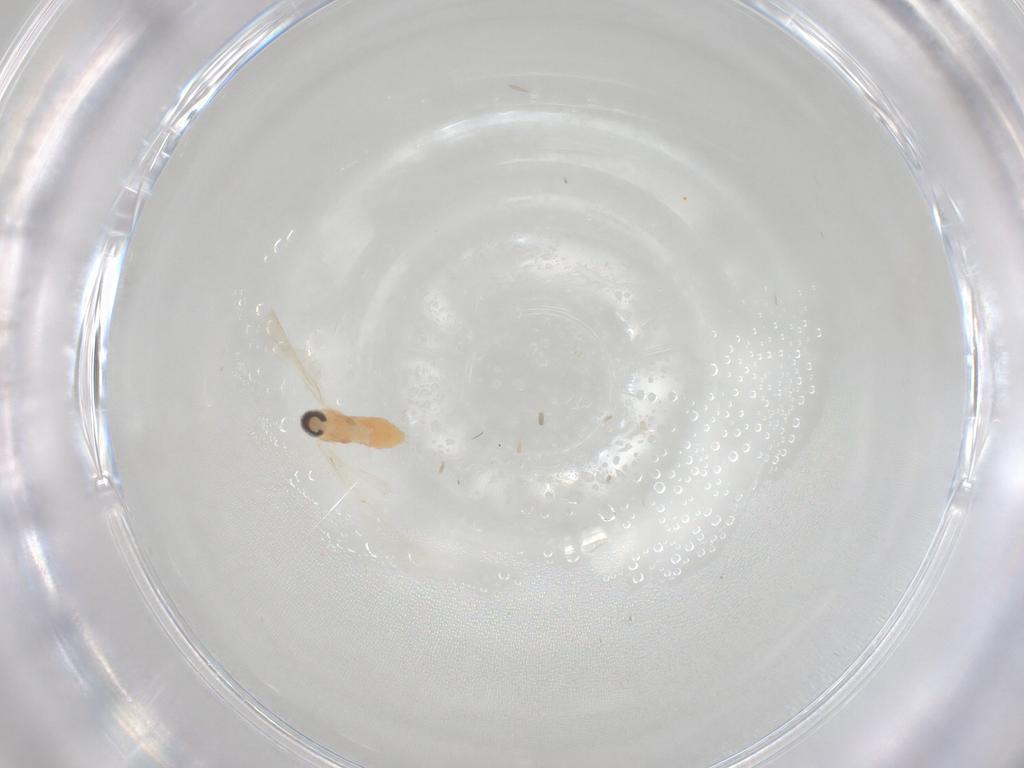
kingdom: Animalia
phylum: Arthropoda
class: Insecta
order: Diptera
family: Cecidomyiidae
